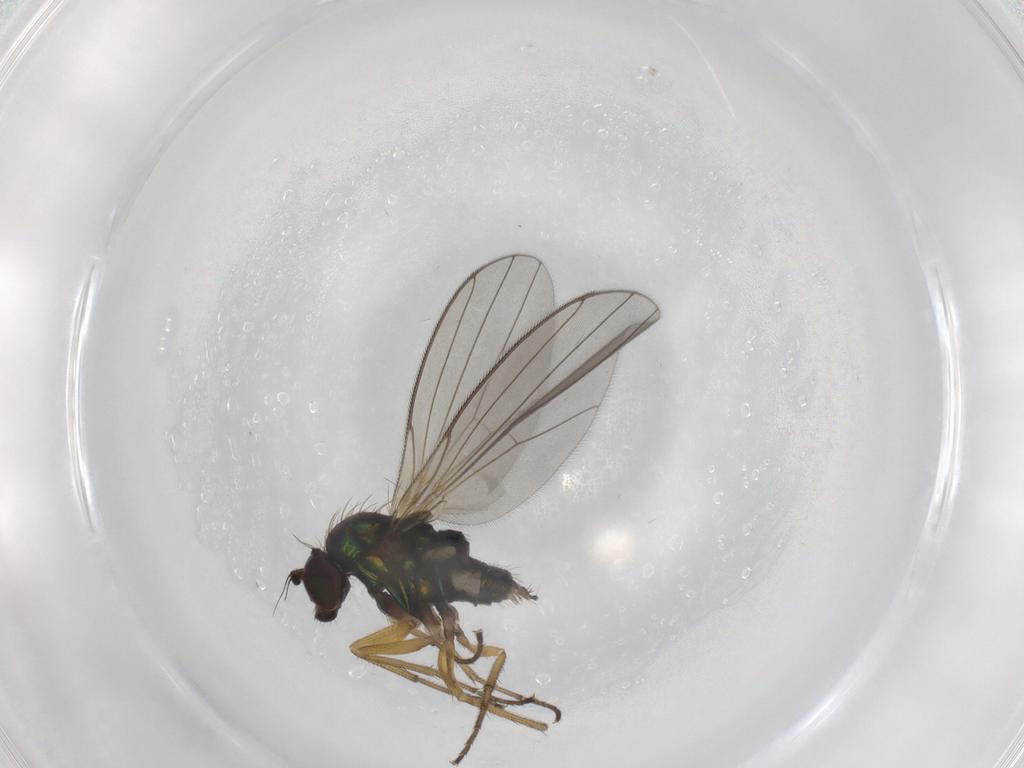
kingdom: Animalia
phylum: Arthropoda
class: Insecta
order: Diptera
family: Dolichopodidae
